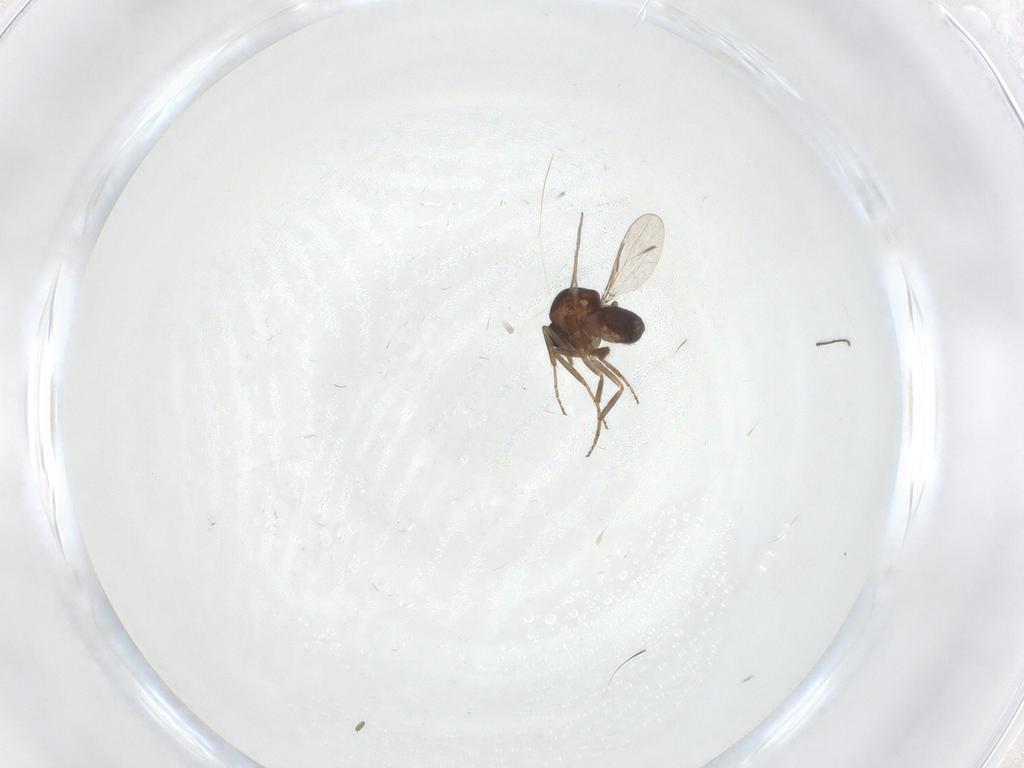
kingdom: Animalia
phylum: Arthropoda
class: Insecta
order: Diptera
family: Ceratopogonidae
